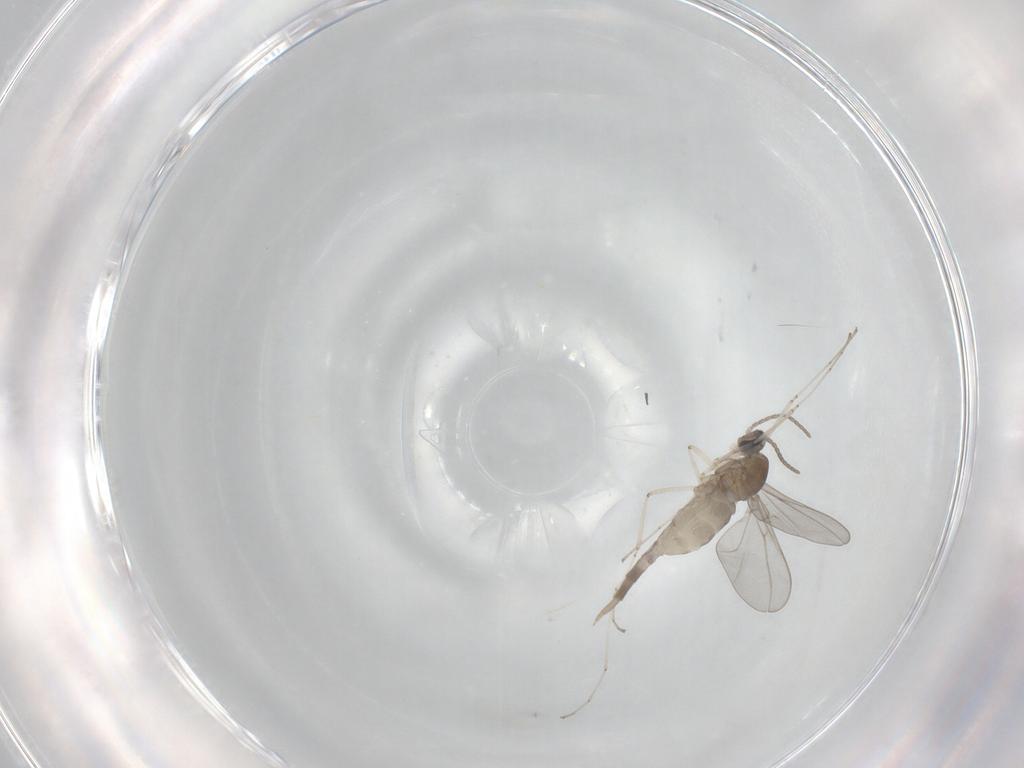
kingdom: Animalia
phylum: Arthropoda
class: Insecta
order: Diptera
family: Cecidomyiidae
